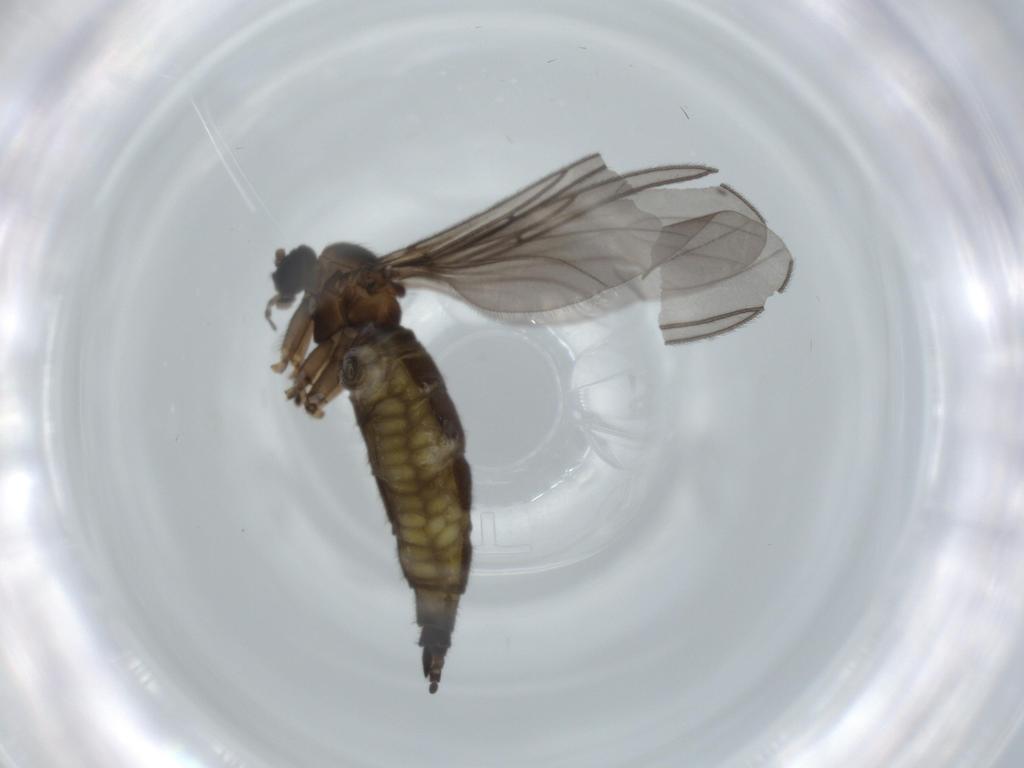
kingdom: Animalia
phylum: Arthropoda
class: Insecta
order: Diptera
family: Sciaridae
